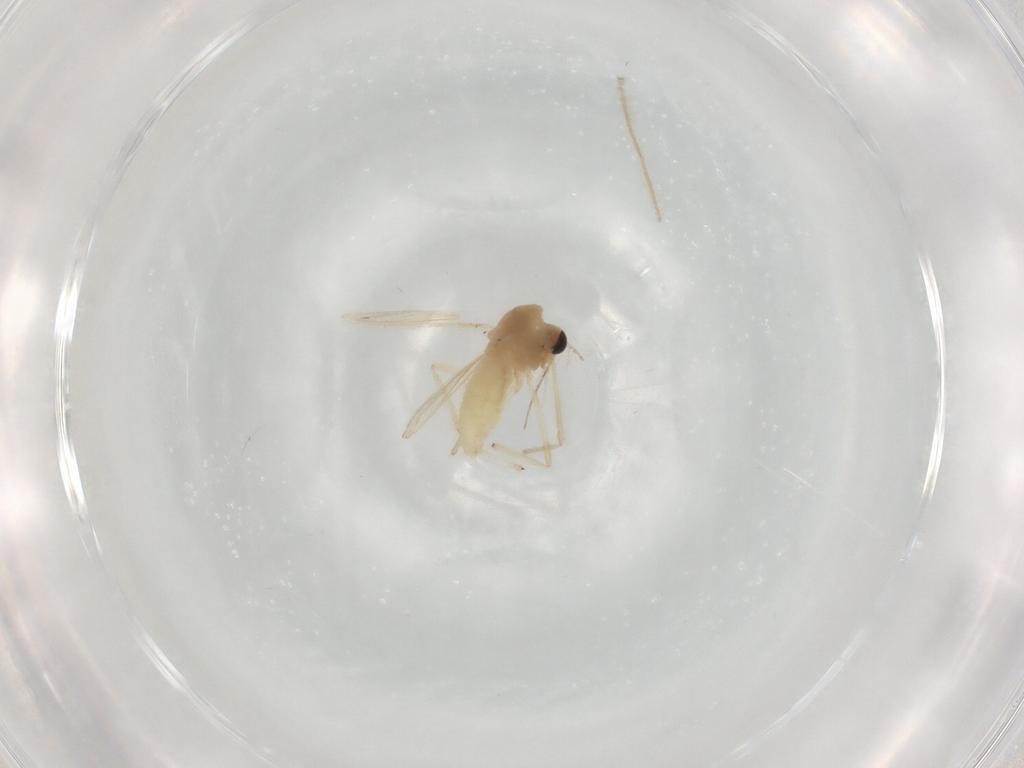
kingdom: Animalia
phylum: Arthropoda
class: Insecta
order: Diptera
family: Chironomidae
